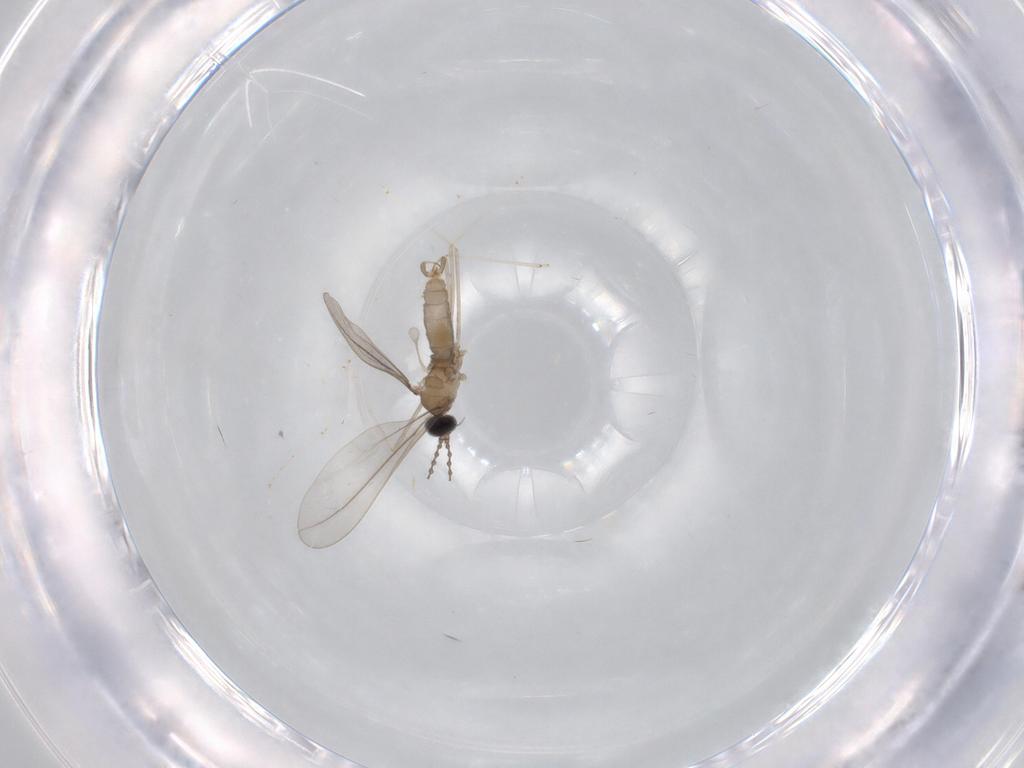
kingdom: Animalia
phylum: Arthropoda
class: Insecta
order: Diptera
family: Cecidomyiidae
